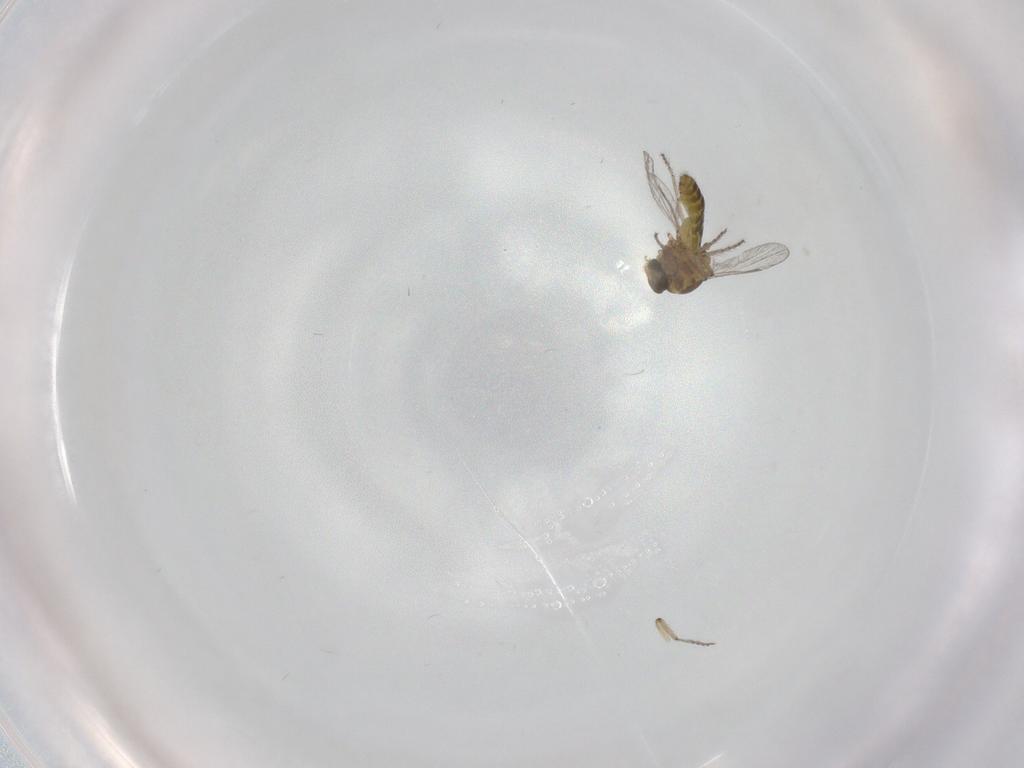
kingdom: Animalia
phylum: Arthropoda
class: Insecta
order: Diptera
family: Ceratopogonidae
